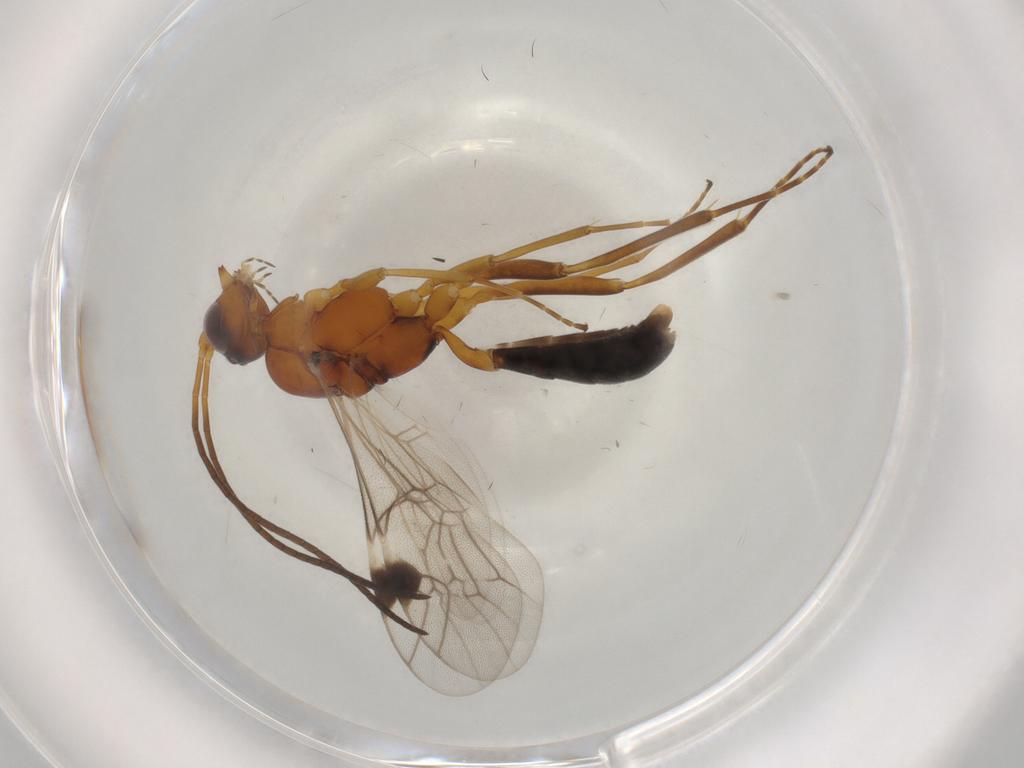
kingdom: Animalia
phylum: Arthropoda
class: Insecta
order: Hymenoptera
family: Ichneumonidae
